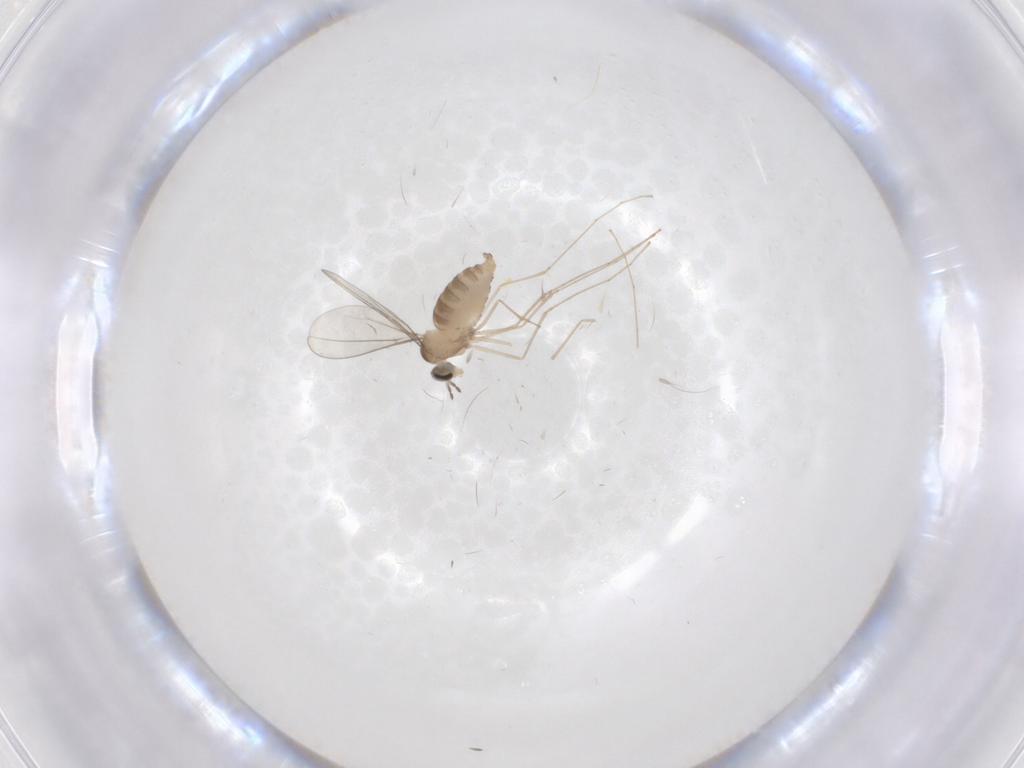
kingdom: Animalia
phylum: Arthropoda
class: Insecta
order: Diptera
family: Cecidomyiidae
